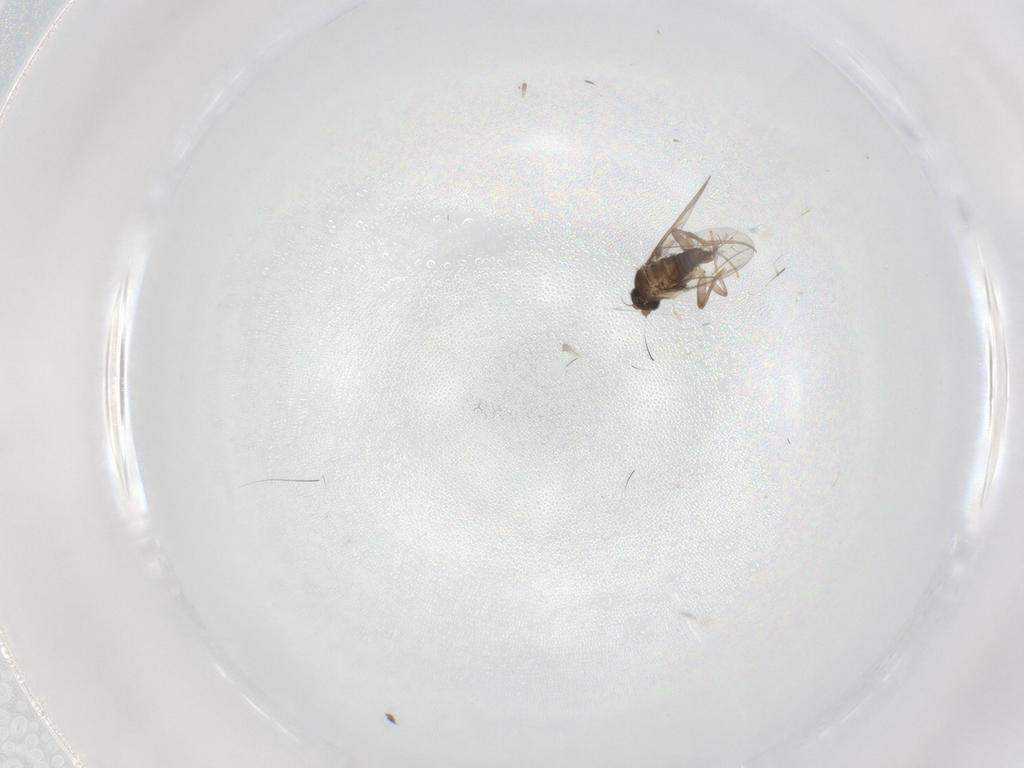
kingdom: Animalia
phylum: Arthropoda
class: Insecta
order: Diptera
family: Phoridae
